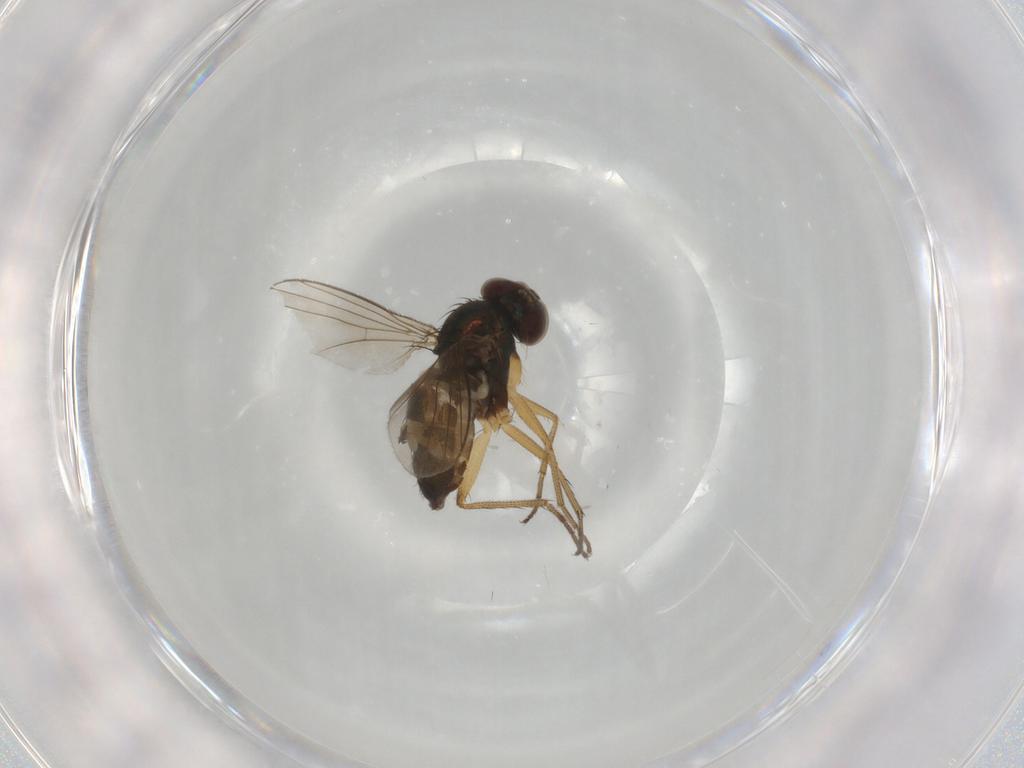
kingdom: Animalia
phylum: Arthropoda
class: Insecta
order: Diptera
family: Dolichopodidae
